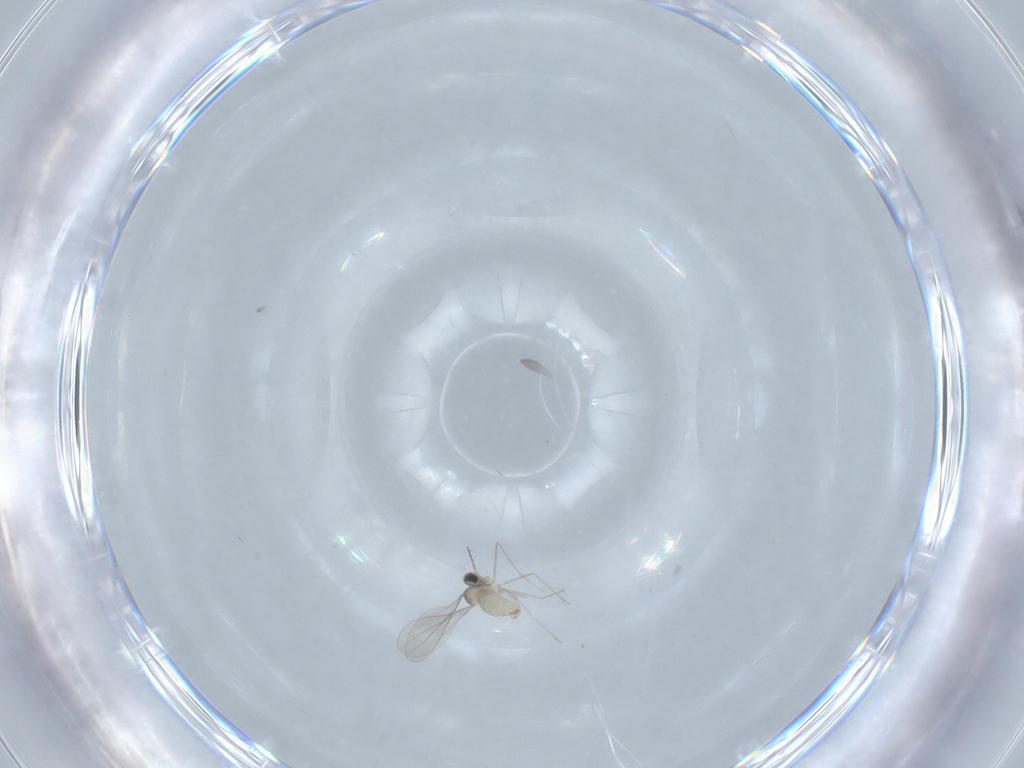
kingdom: Animalia
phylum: Arthropoda
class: Insecta
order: Diptera
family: Cecidomyiidae
